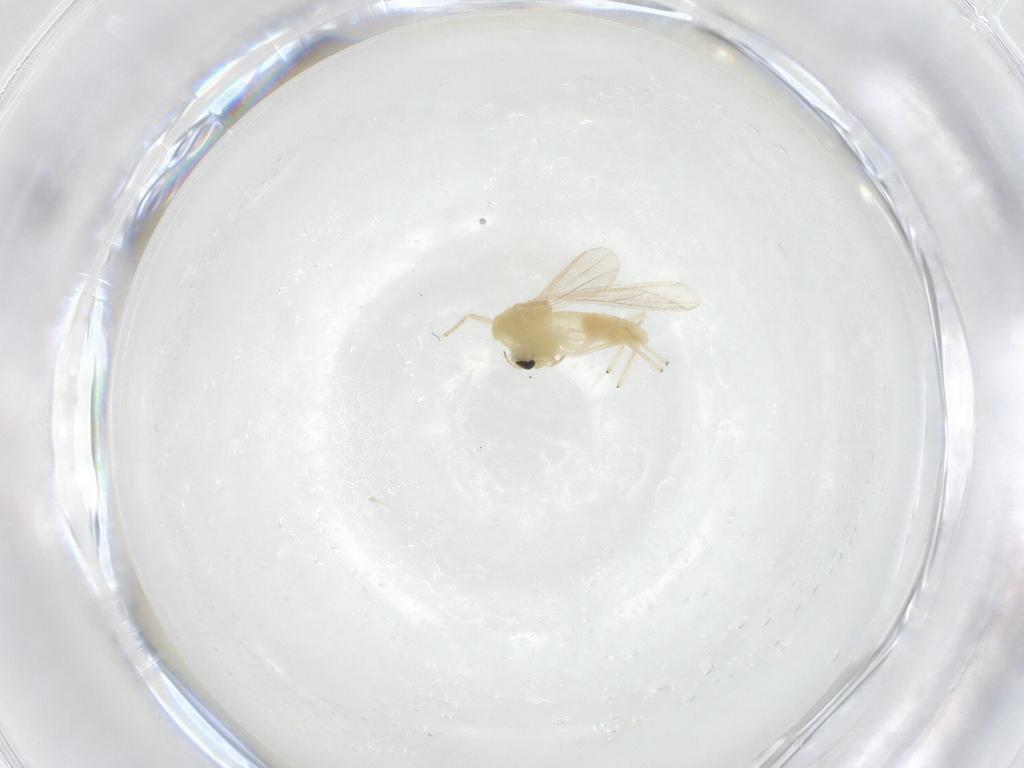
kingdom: Animalia
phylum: Arthropoda
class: Insecta
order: Diptera
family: Chironomidae
